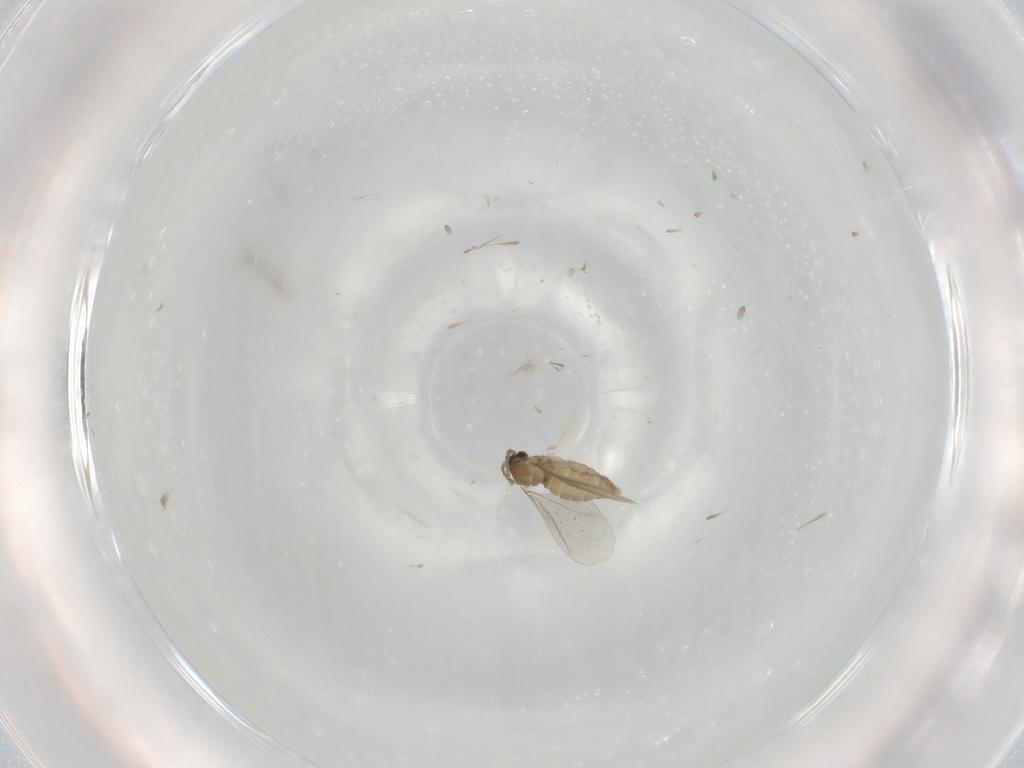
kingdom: Animalia
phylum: Arthropoda
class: Insecta
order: Diptera
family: Cecidomyiidae
